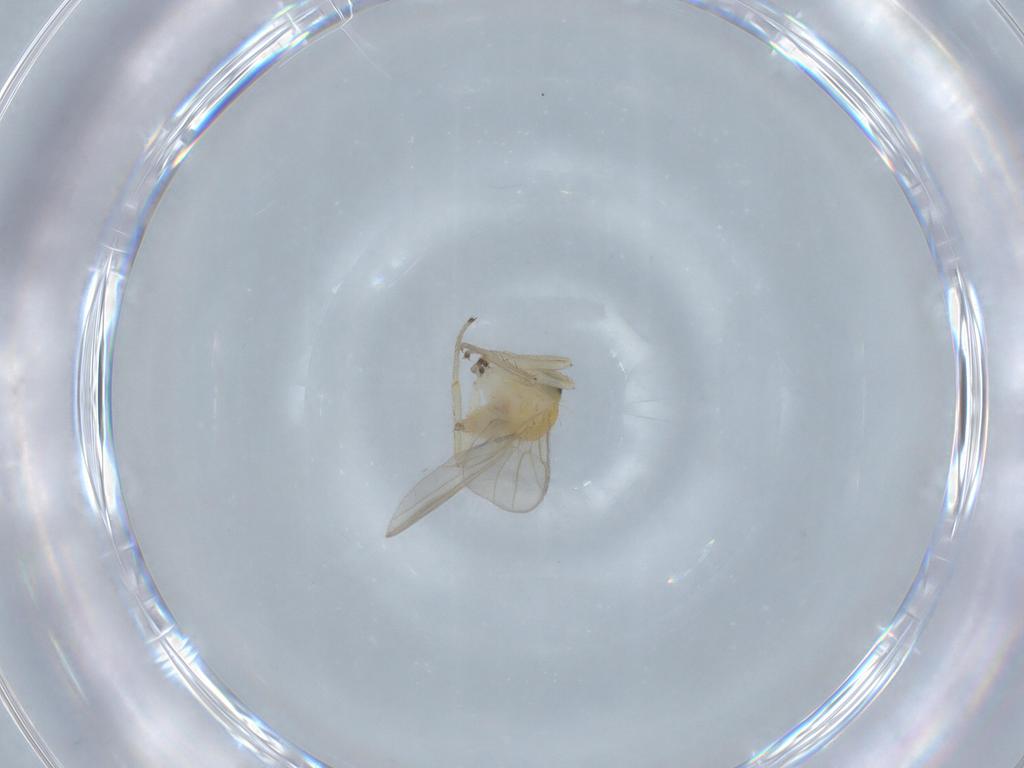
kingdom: Animalia
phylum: Arthropoda
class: Insecta
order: Diptera
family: Hybotidae
